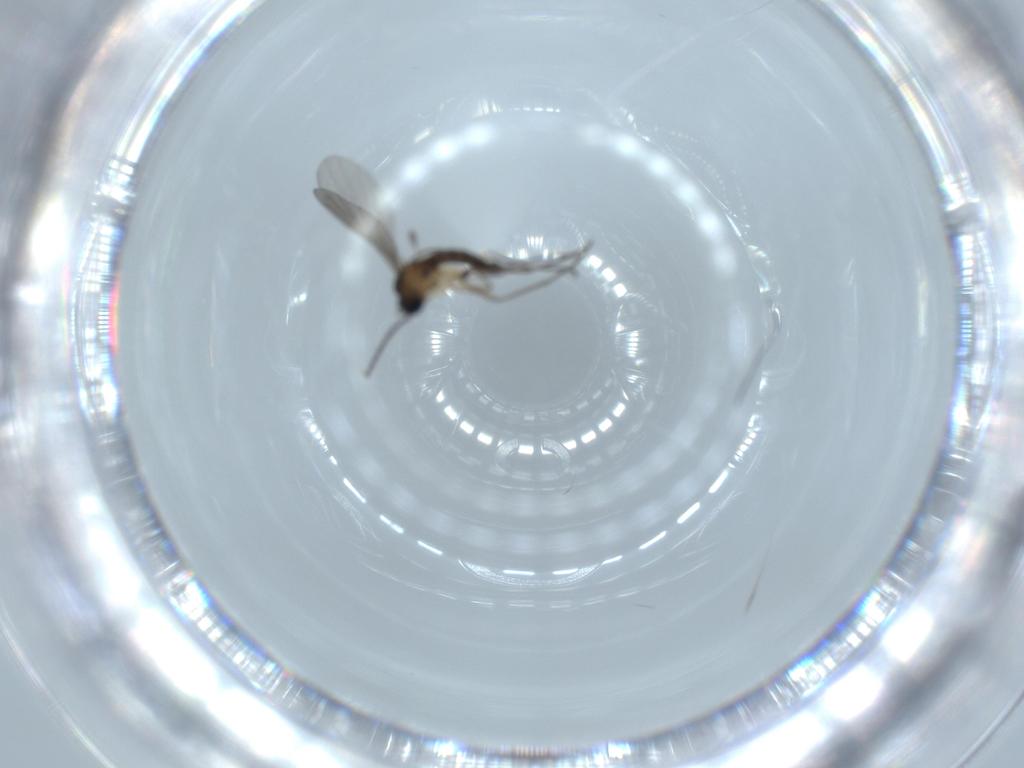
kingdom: Animalia
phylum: Arthropoda
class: Insecta
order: Diptera
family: Sciaridae
